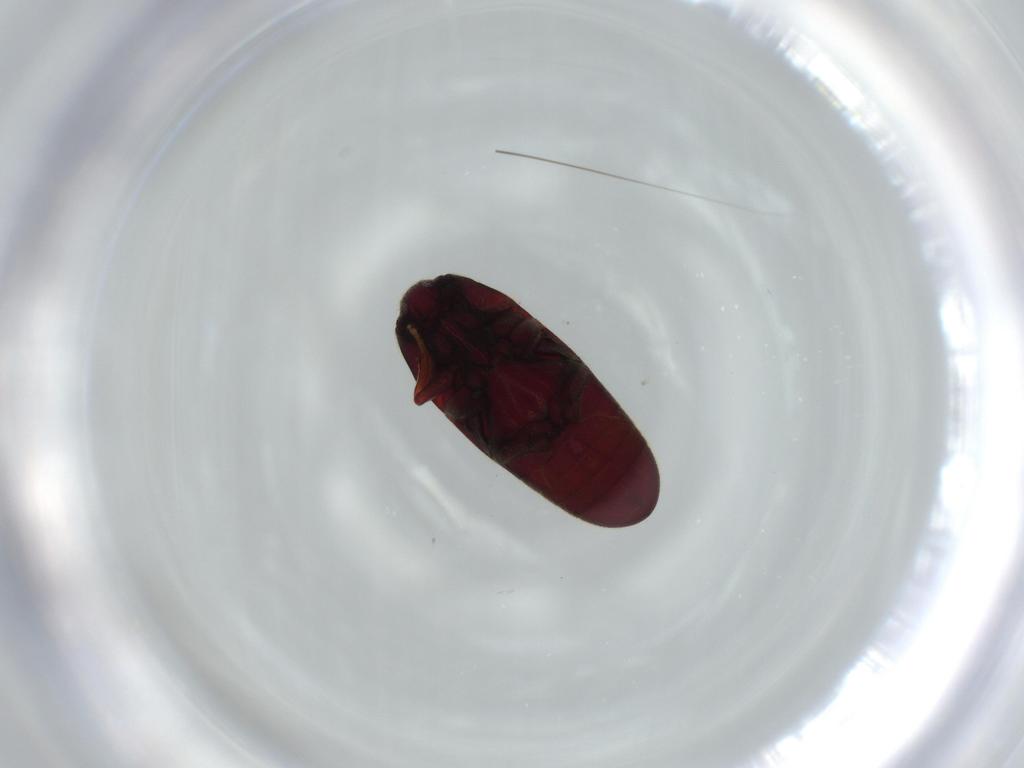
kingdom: Animalia
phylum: Arthropoda
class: Insecta
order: Coleoptera
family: Throscidae
